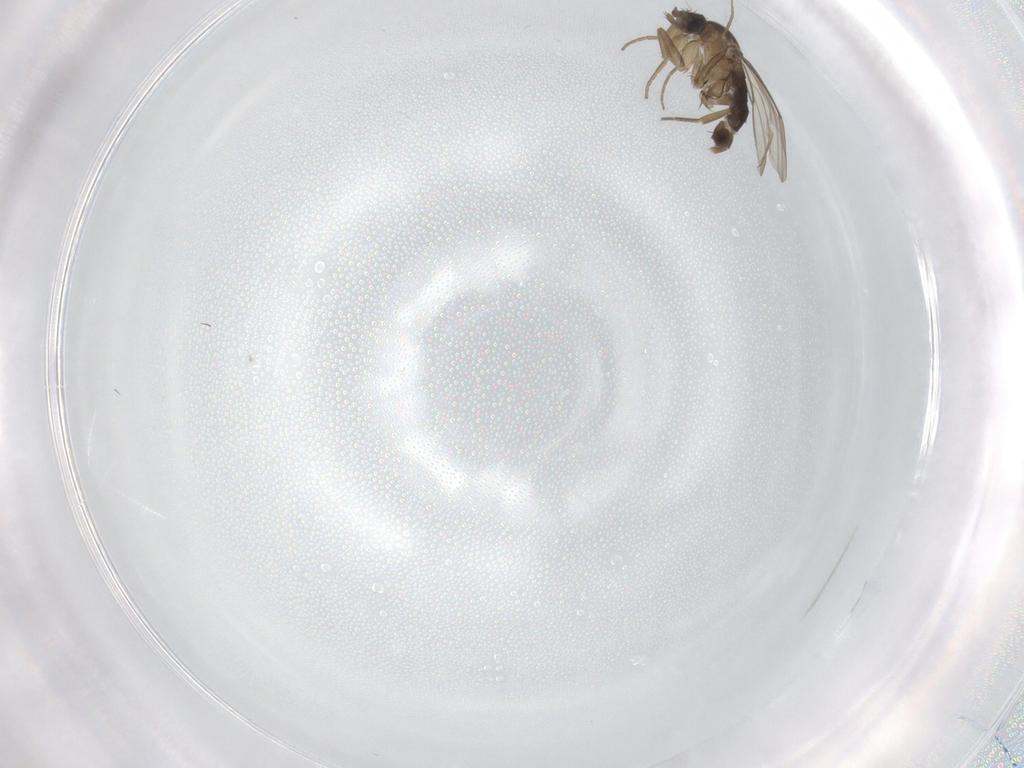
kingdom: Animalia
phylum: Arthropoda
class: Insecta
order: Diptera
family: Phoridae
